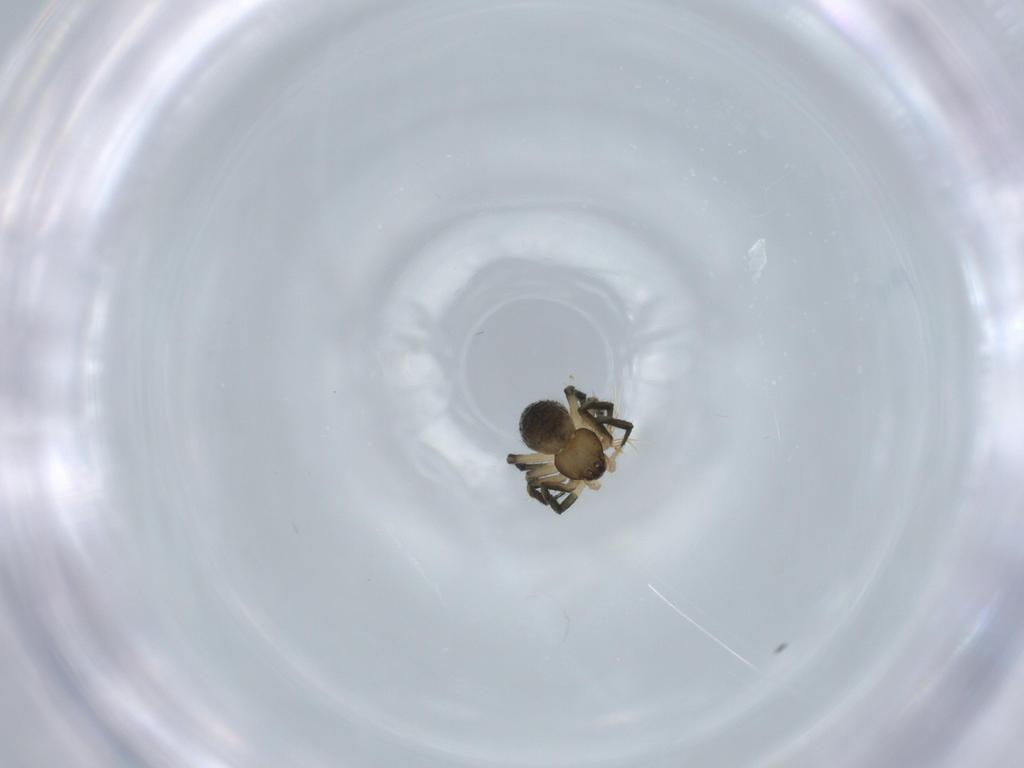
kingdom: Animalia
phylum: Arthropoda
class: Arachnida
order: Araneae
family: Theridiidae
